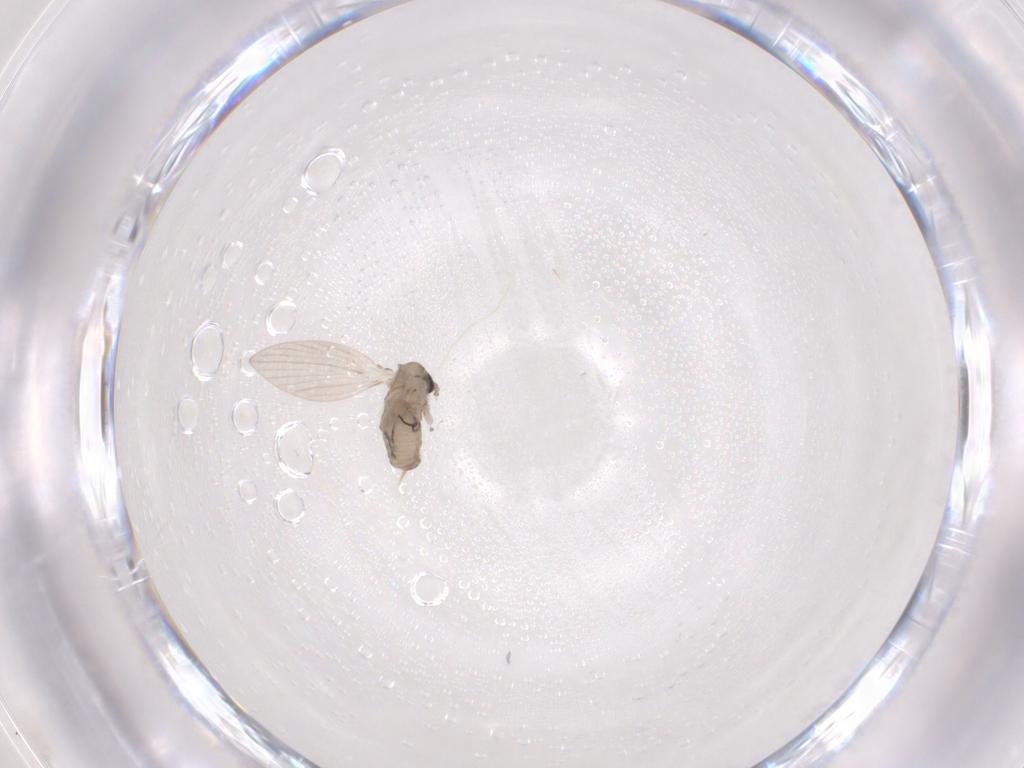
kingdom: Animalia
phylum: Arthropoda
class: Insecta
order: Diptera
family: Psychodidae
